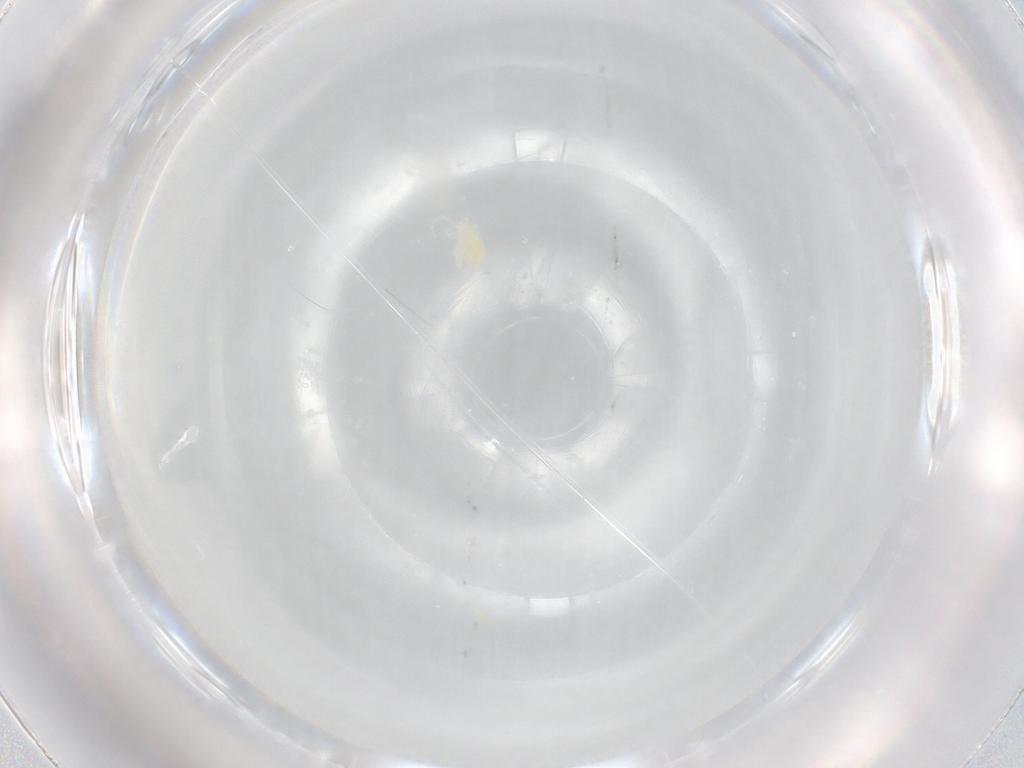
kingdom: Animalia
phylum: Arthropoda
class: Arachnida
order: Trombidiformes
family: Eupodidae
